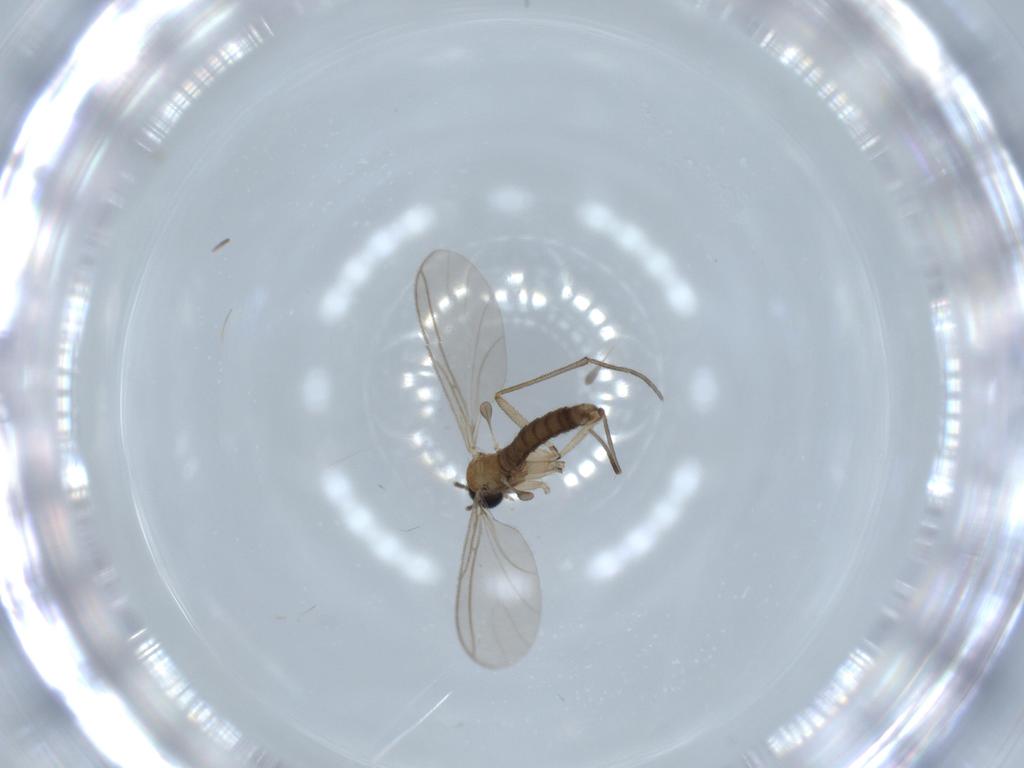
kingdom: Animalia
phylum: Arthropoda
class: Insecta
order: Diptera
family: Sciaridae
